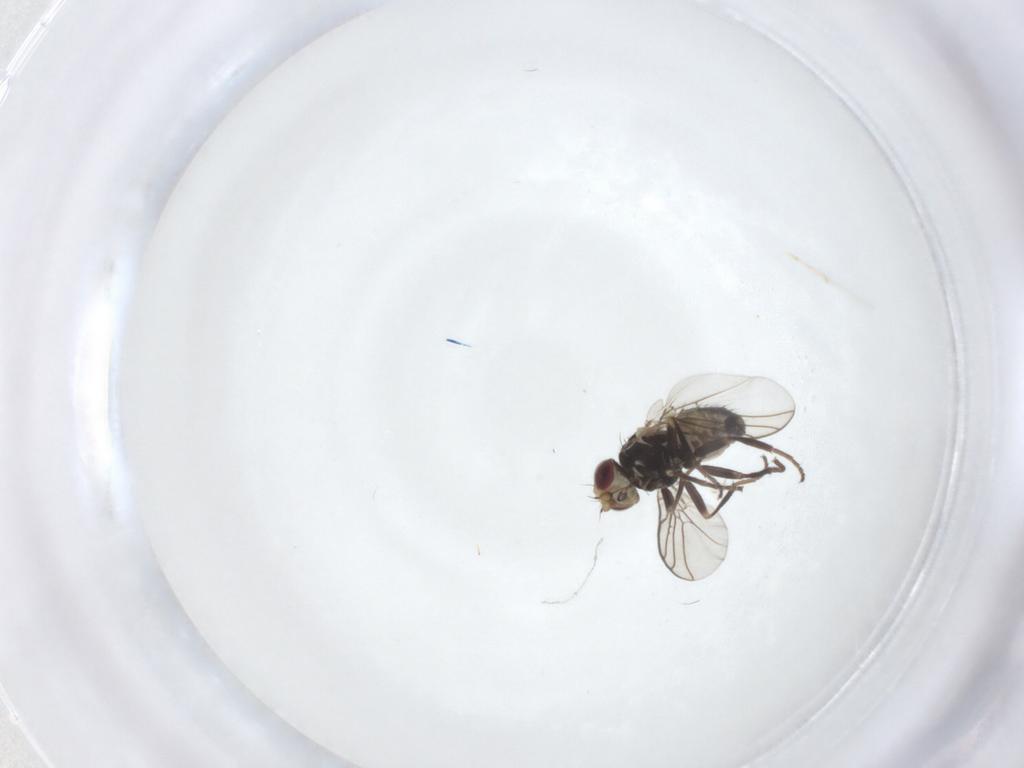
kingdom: Animalia
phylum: Arthropoda
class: Insecta
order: Diptera
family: Agromyzidae
